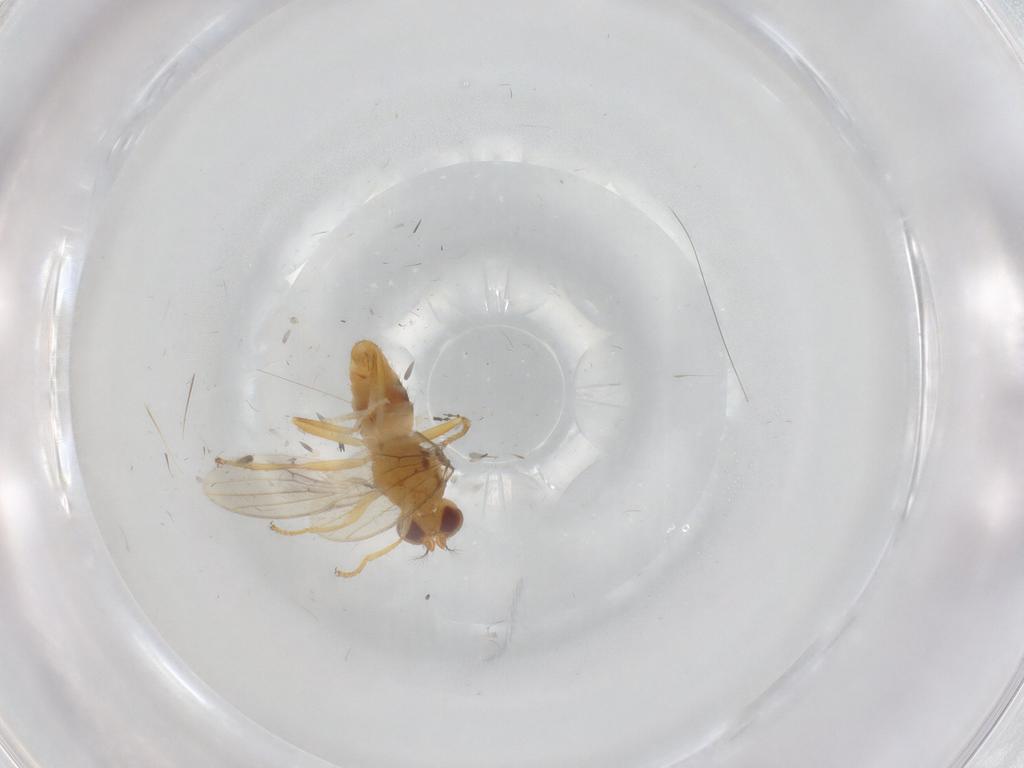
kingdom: Animalia
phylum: Arthropoda
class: Insecta
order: Diptera
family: Periscelididae
